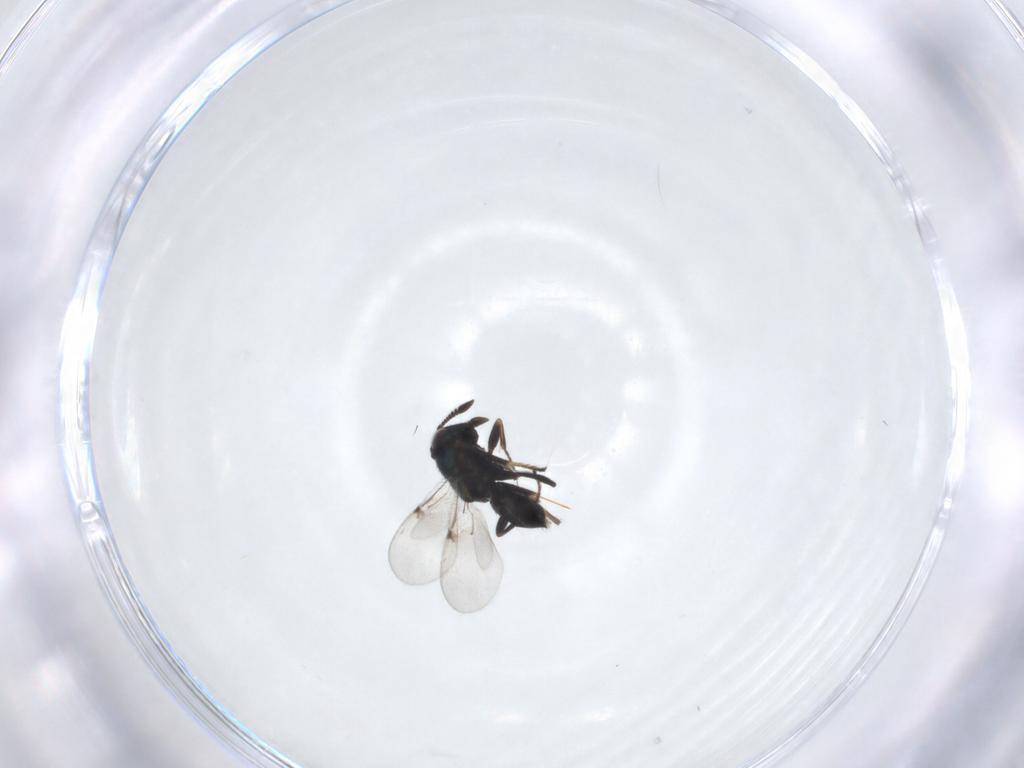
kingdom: Animalia
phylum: Arthropoda
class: Insecta
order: Hymenoptera
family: Encyrtidae
